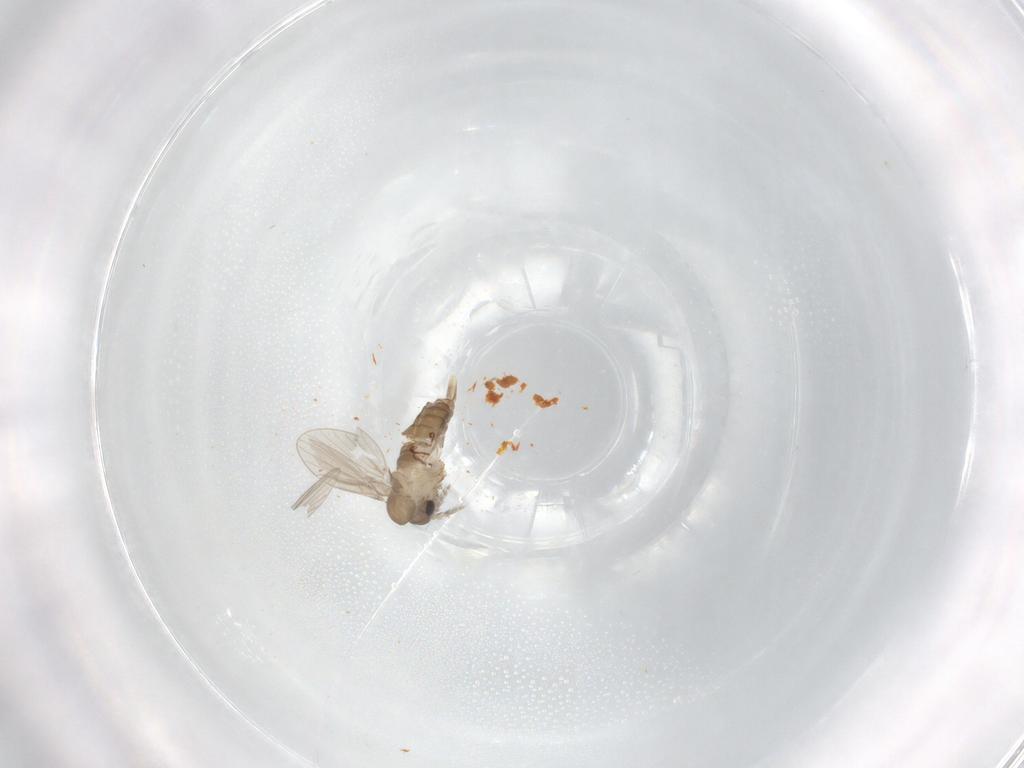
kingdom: Animalia
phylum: Arthropoda
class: Insecta
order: Diptera
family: Psychodidae
